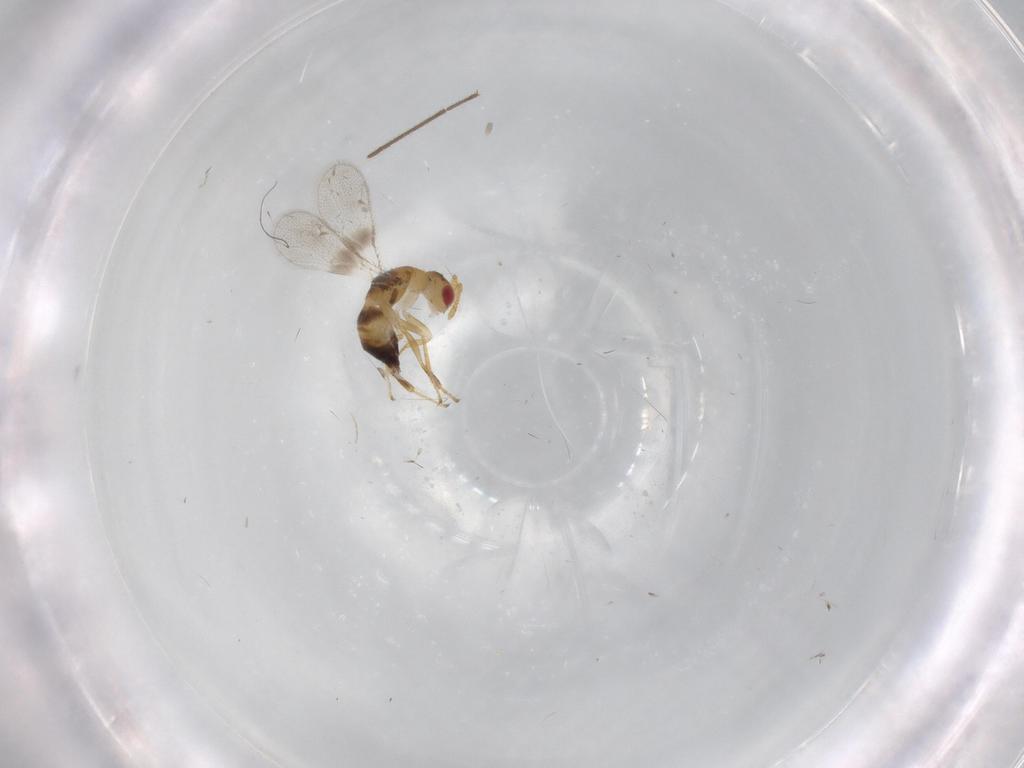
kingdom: Animalia
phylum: Arthropoda
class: Insecta
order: Hymenoptera
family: Torymidae
